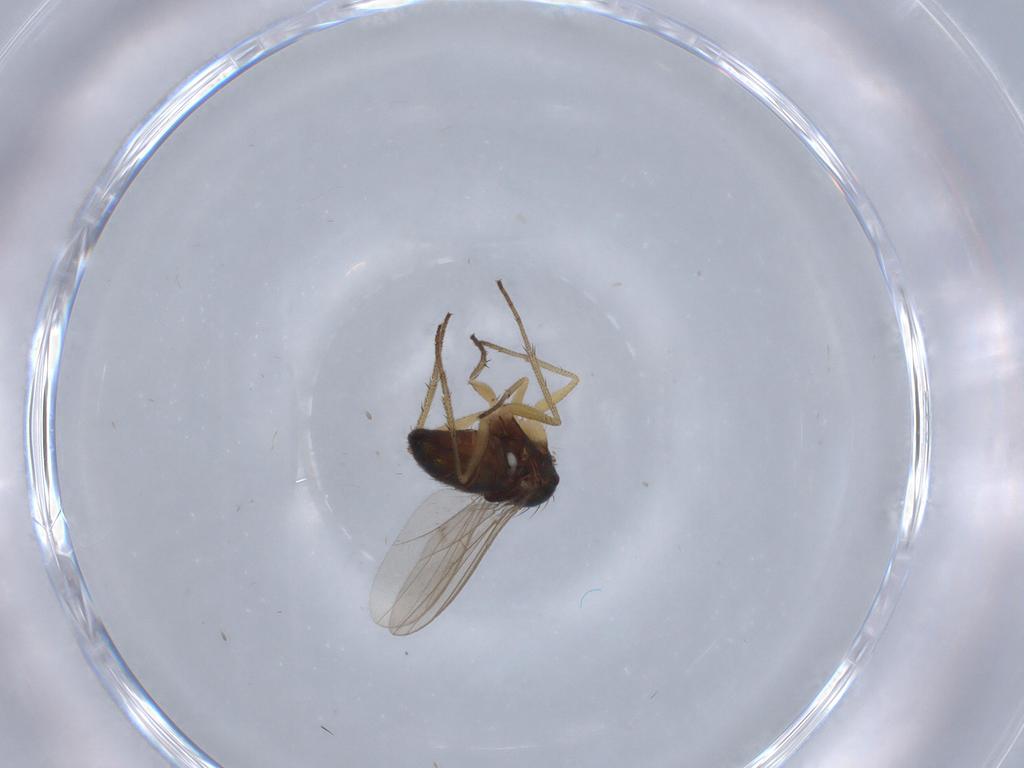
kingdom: Animalia
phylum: Arthropoda
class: Insecta
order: Diptera
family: Dolichopodidae
